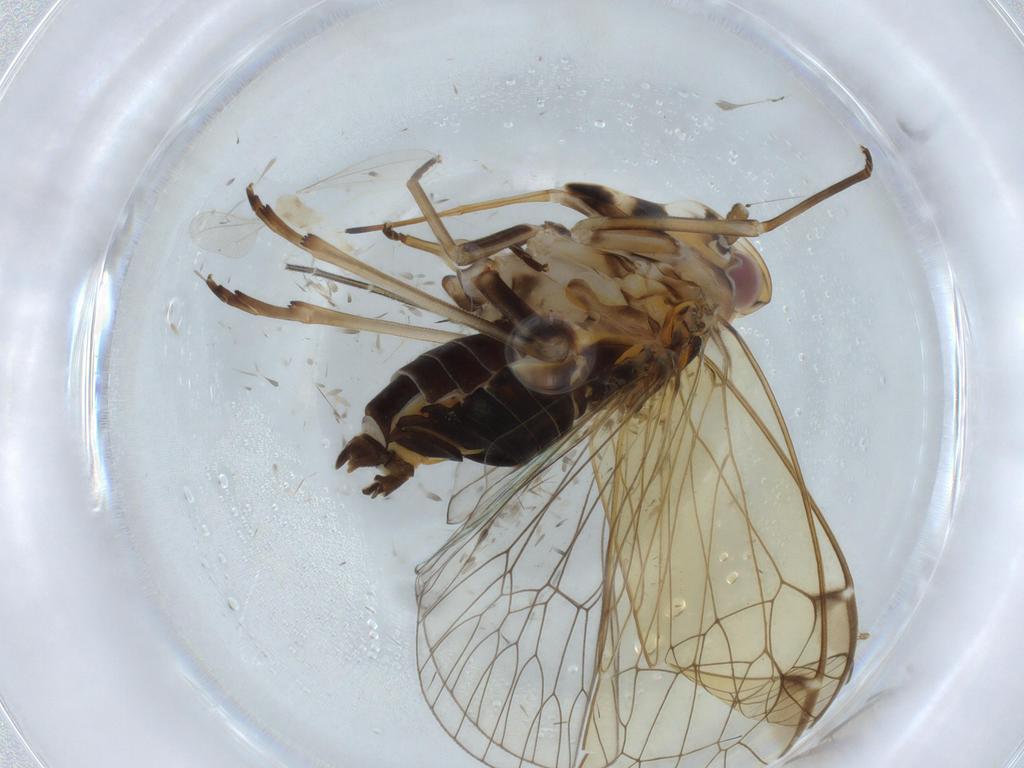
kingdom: Animalia
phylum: Arthropoda
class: Insecta
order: Hemiptera
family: Kinnaridae
